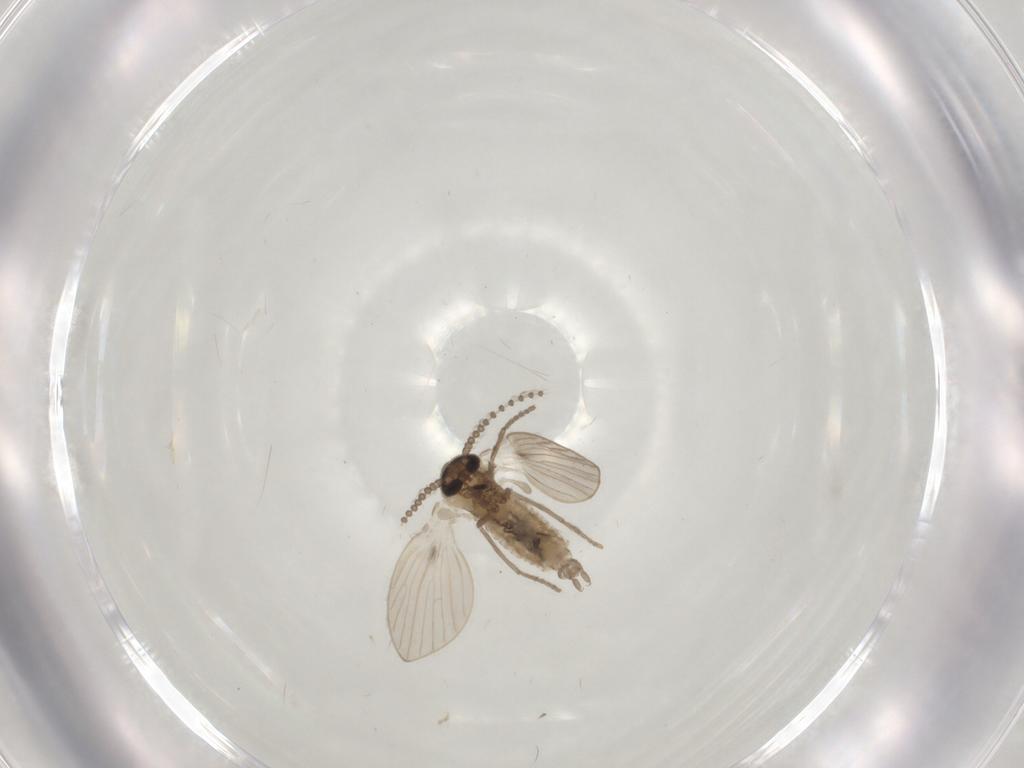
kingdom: Animalia
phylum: Arthropoda
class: Insecta
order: Diptera
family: Psychodidae
